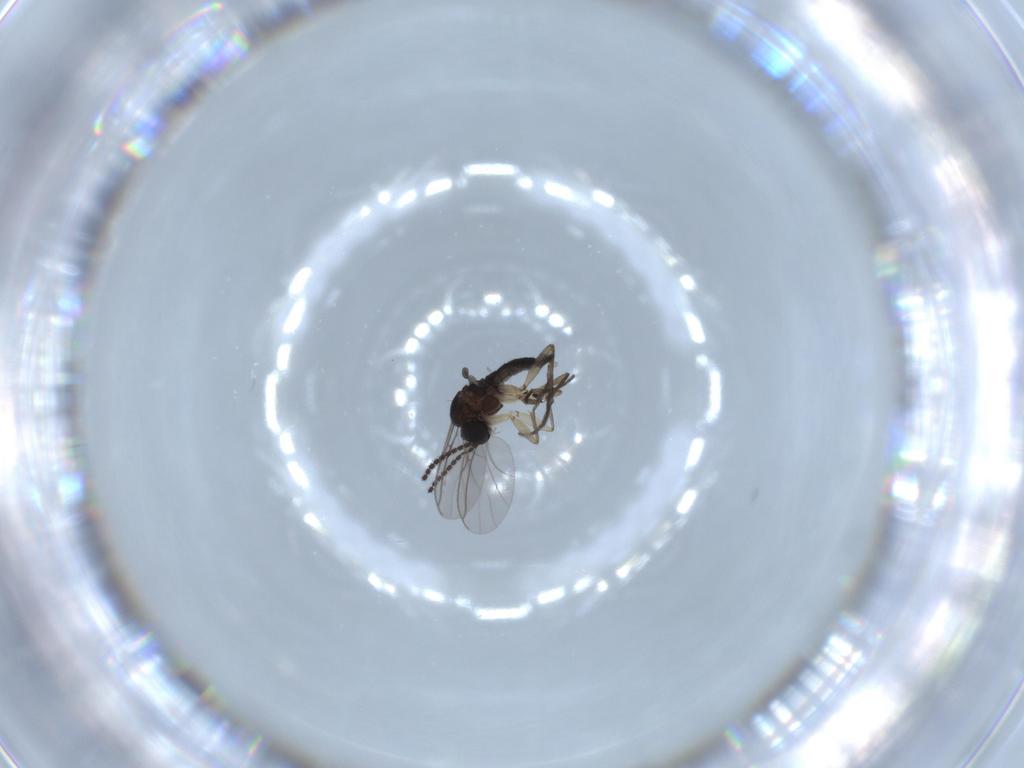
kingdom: Animalia
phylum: Arthropoda
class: Insecta
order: Diptera
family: Sciaridae
